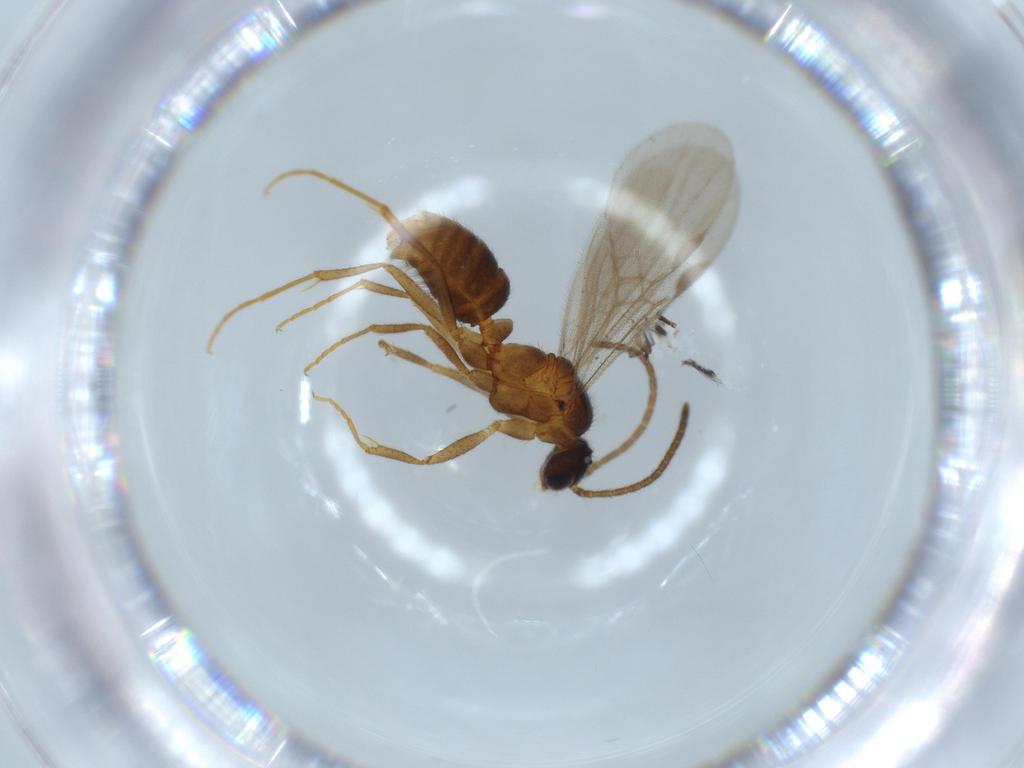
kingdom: Animalia
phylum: Arthropoda
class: Insecta
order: Hymenoptera
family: Formicidae
